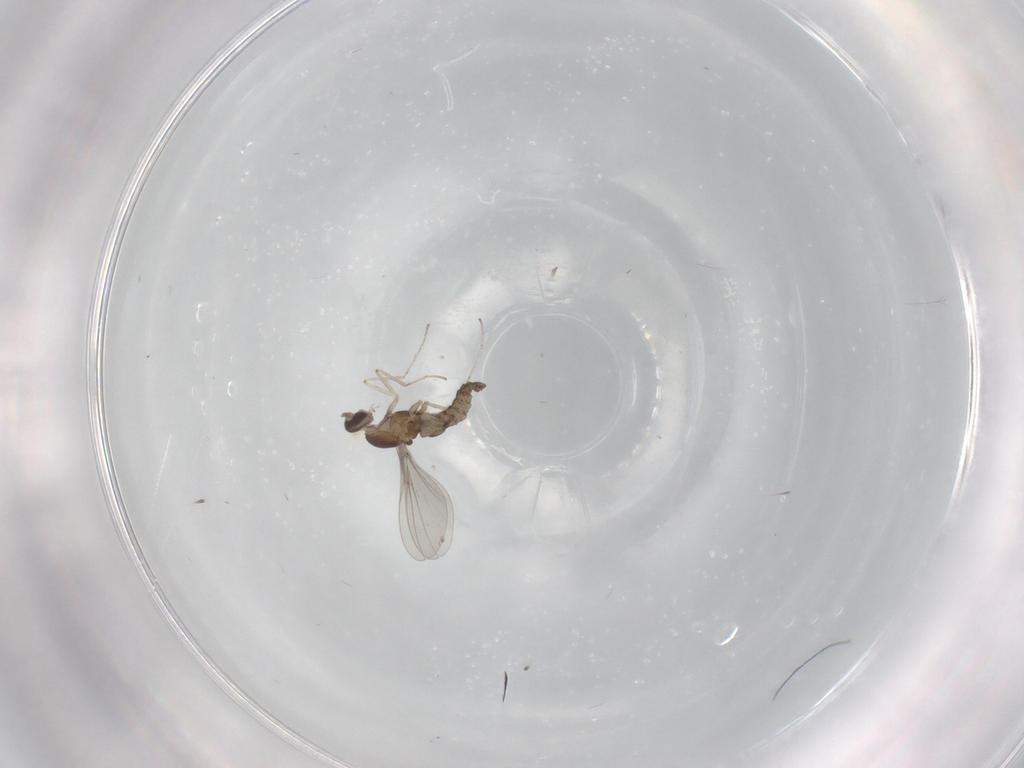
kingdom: Animalia
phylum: Arthropoda
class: Insecta
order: Diptera
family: Sciaridae
